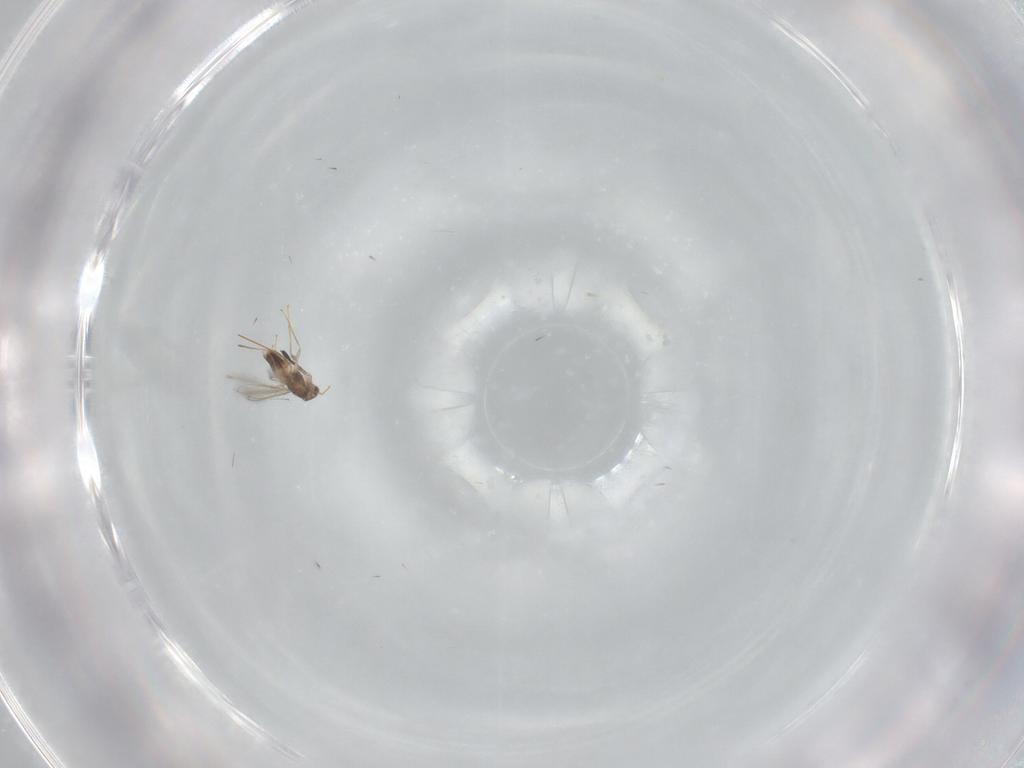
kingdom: Animalia
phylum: Arthropoda
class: Insecta
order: Hymenoptera
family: Mymaridae
